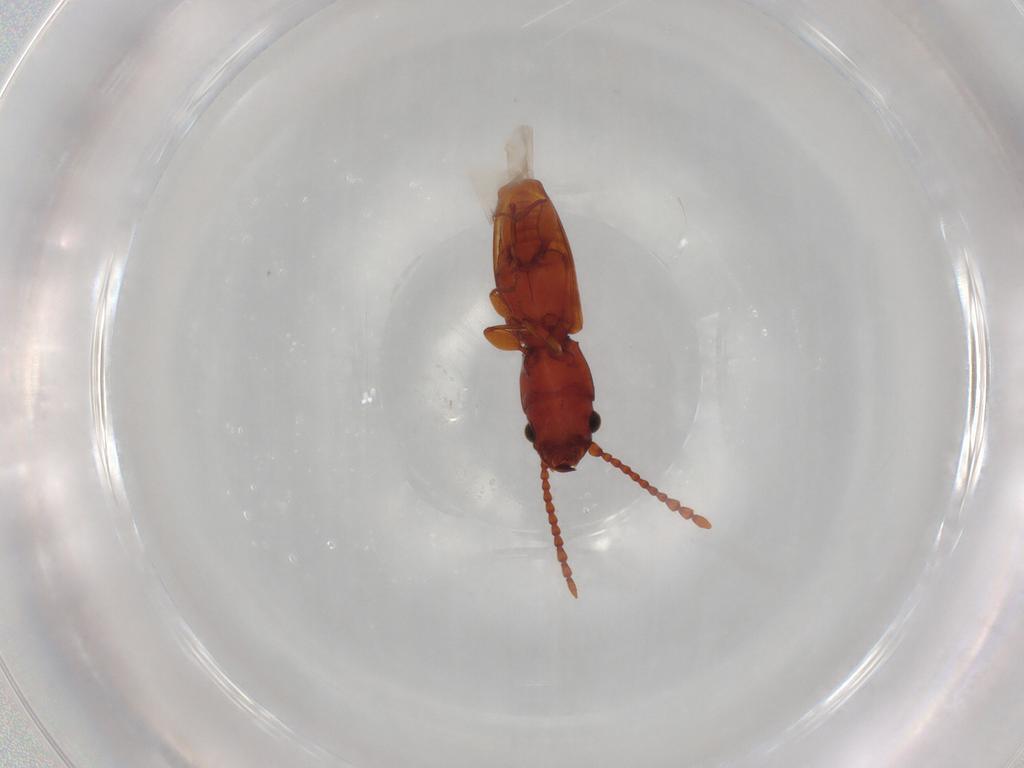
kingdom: Animalia
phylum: Arthropoda
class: Insecta
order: Coleoptera
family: Laemophloeidae
